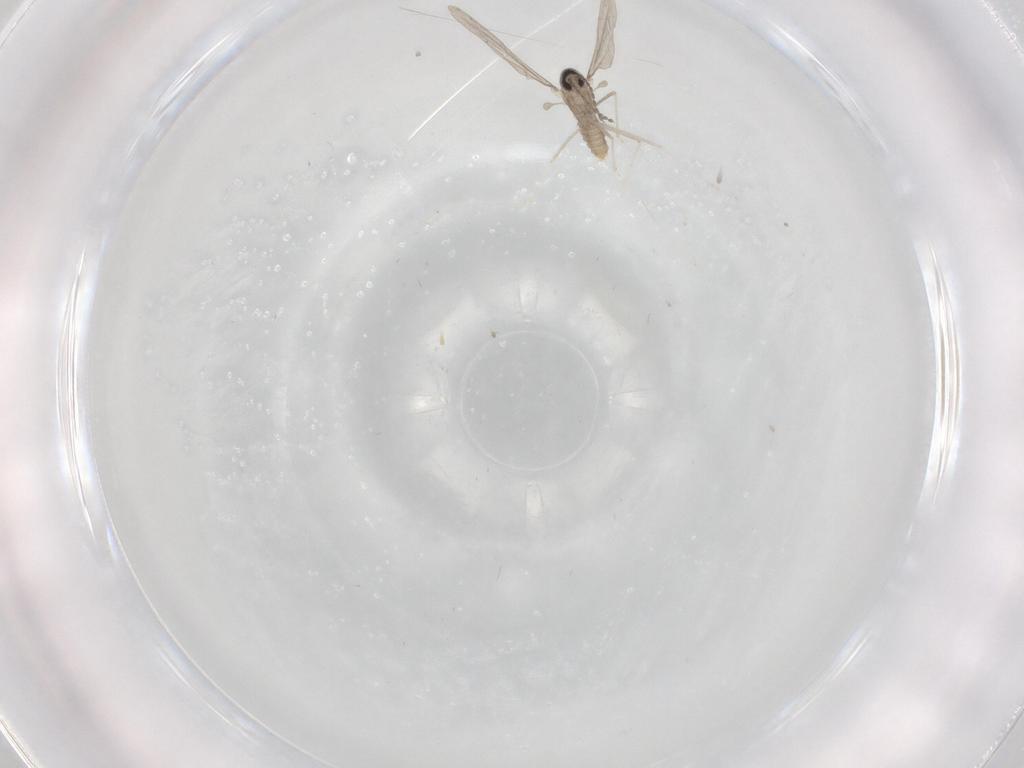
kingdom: Animalia
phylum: Arthropoda
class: Insecta
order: Diptera
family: Cecidomyiidae
